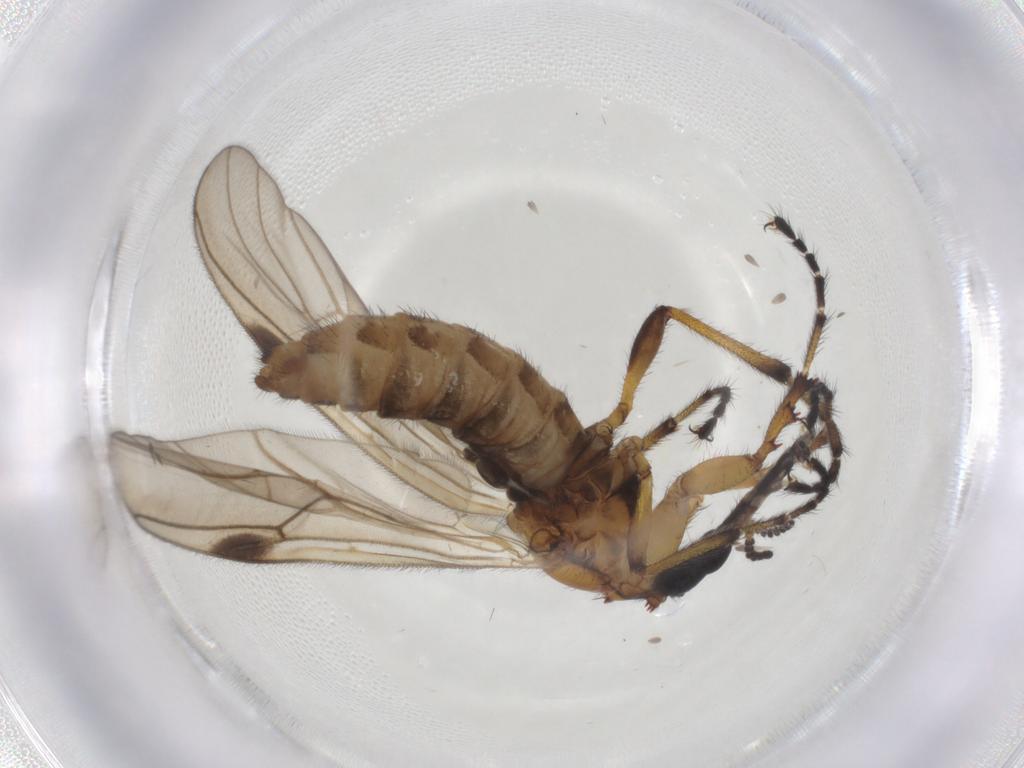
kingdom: Animalia
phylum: Arthropoda
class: Insecta
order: Diptera
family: Bibionidae
